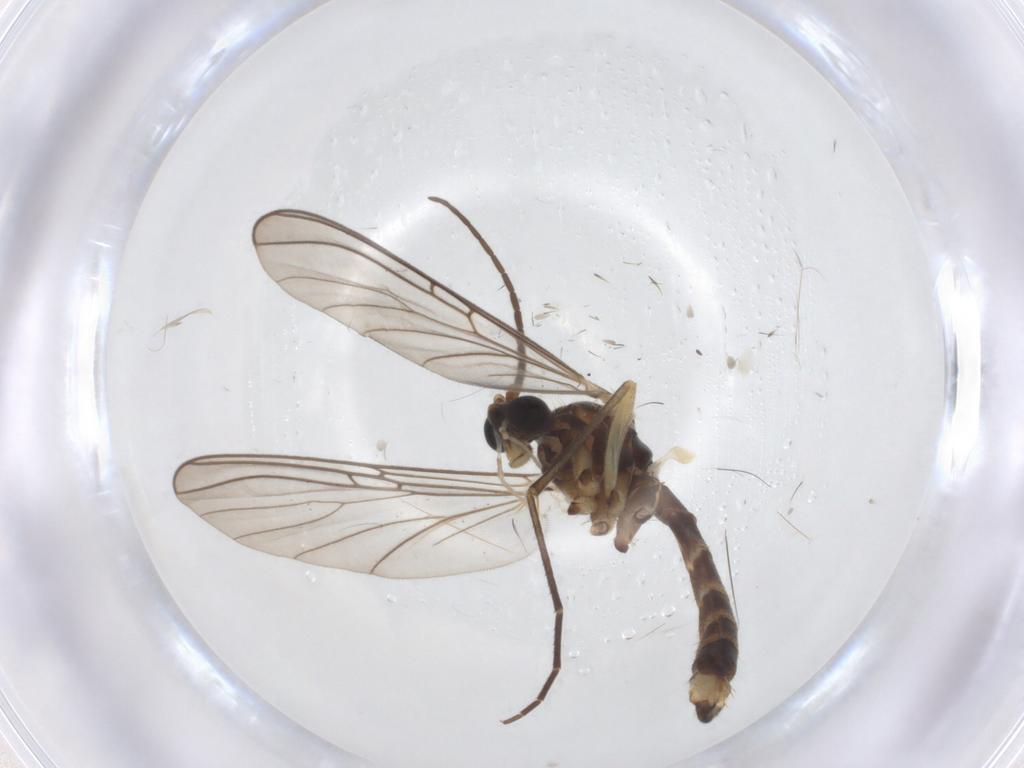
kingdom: Animalia
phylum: Arthropoda
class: Insecta
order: Diptera
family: Mycetophilidae
